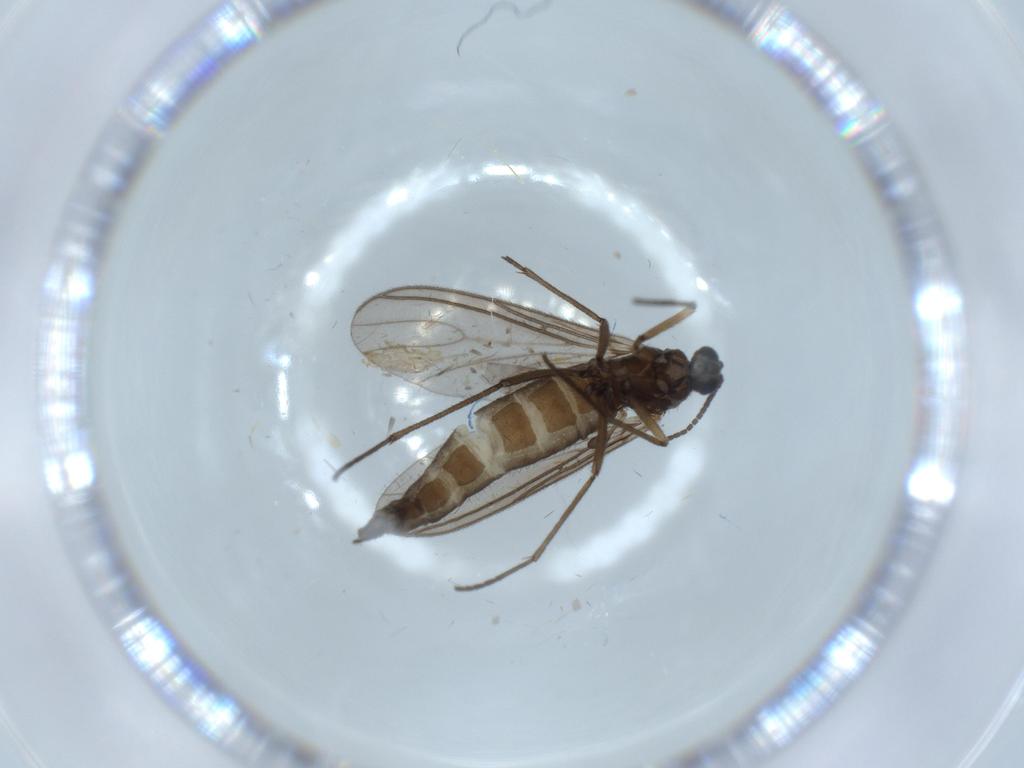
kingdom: Animalia
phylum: Arthropoda
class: Insecta
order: Diptera
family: Sciaridae
